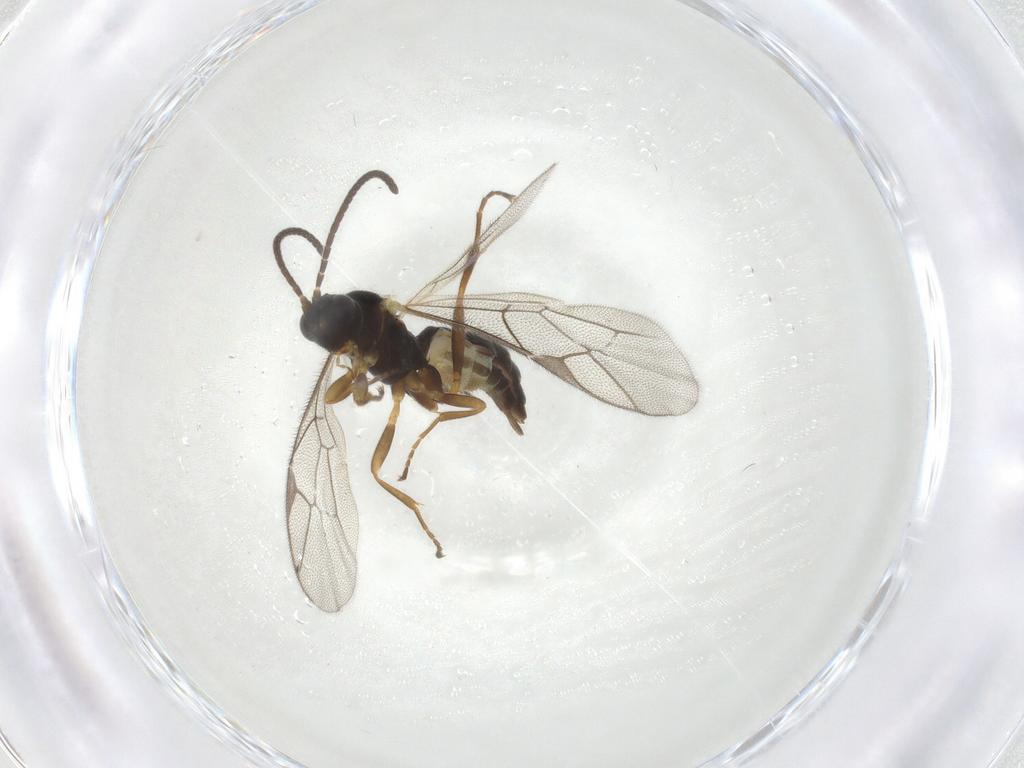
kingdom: Animalia
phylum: Arthropoda
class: Insecta
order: Hymenoptera
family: Ichneumonidae
